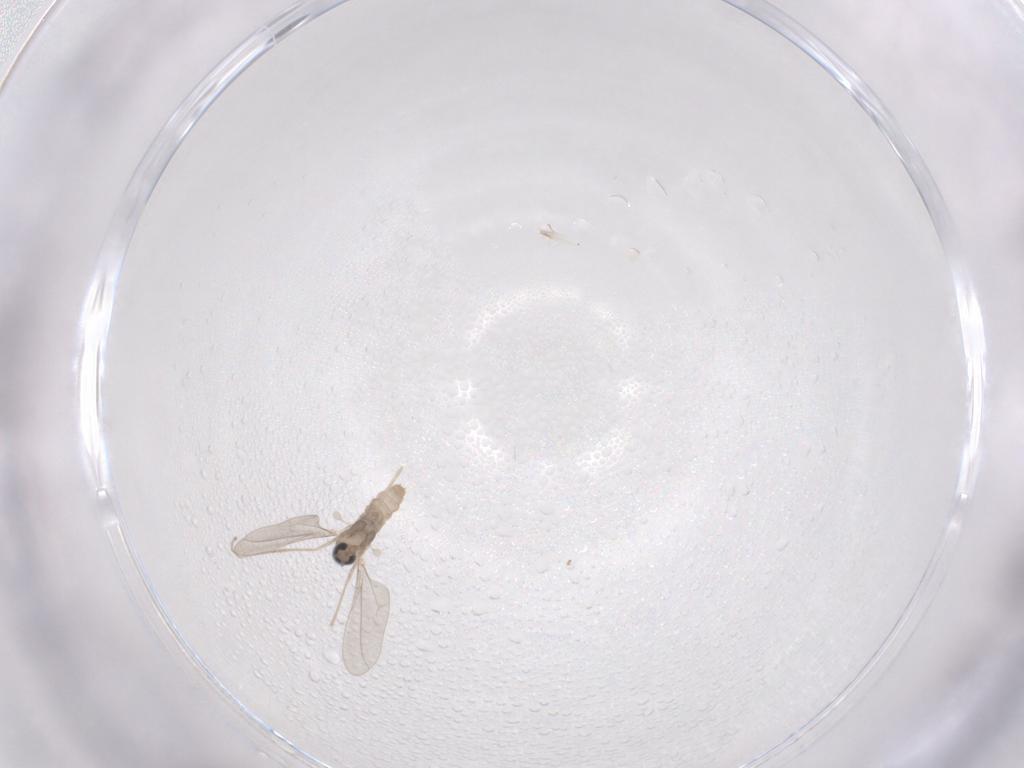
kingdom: Animalia
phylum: Arthropoda
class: Insecta
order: Diptera
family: Cecidomyiidae
